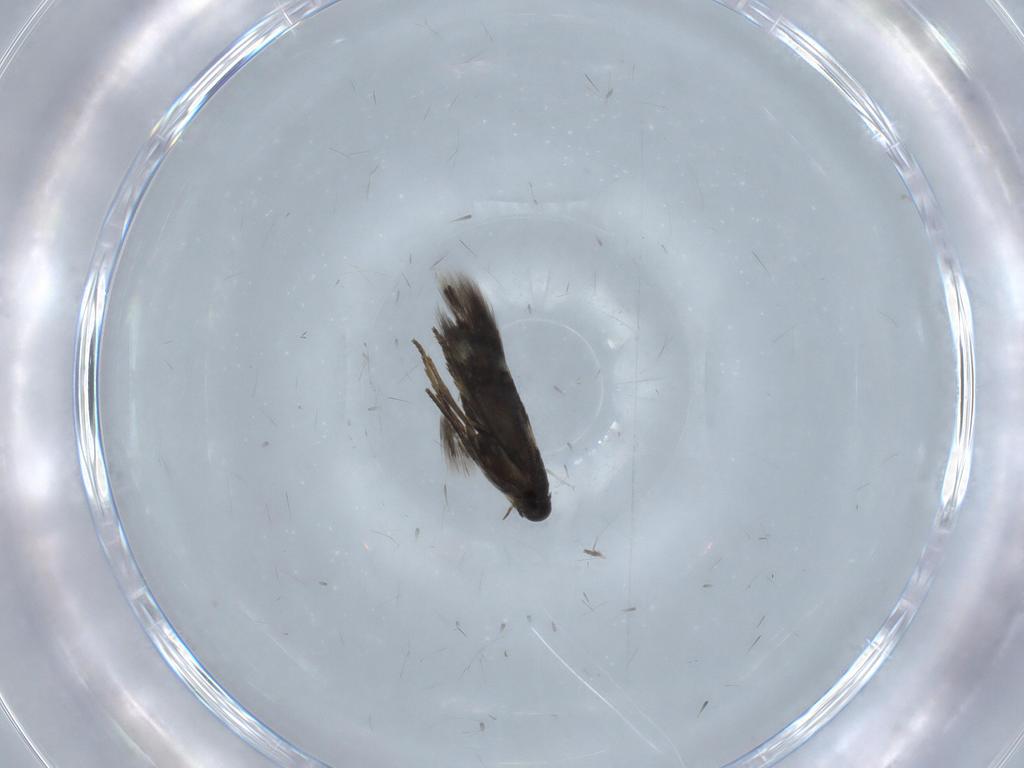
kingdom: Animalia
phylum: Arthropoda
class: Insecta
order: Lepidoptera
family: Heliozelidae
